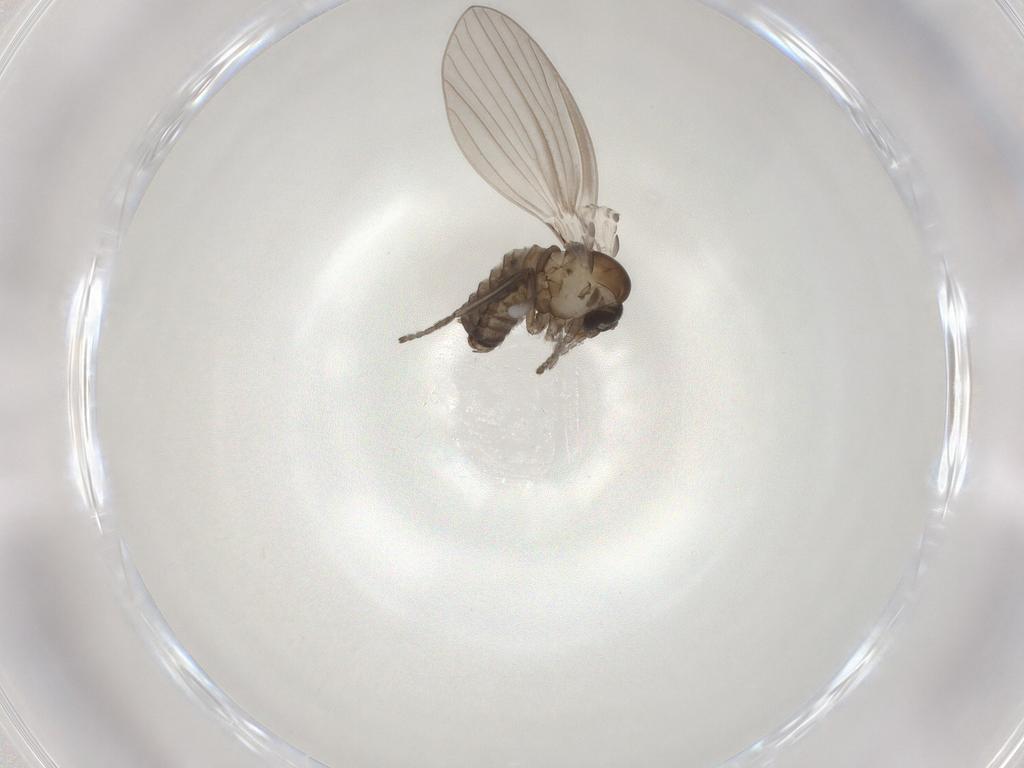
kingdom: Animalia
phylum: Arthropoda
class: Insecta
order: Diptera
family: Psychodidae
